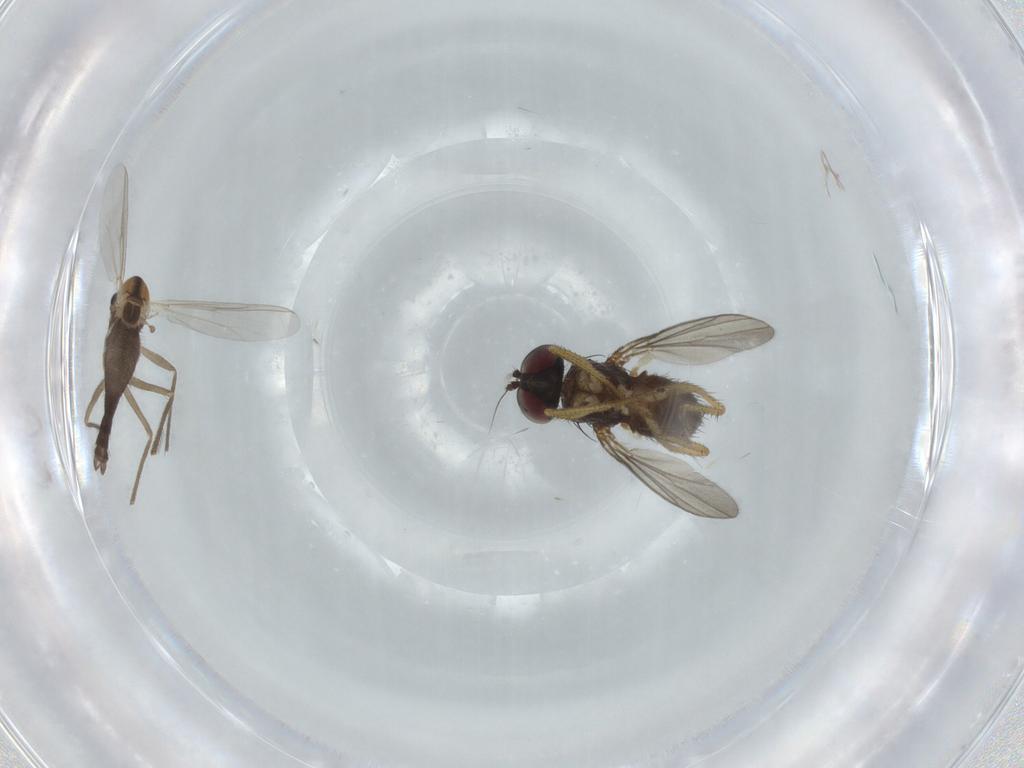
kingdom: Animalia
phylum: Arthropoda
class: Insecta
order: Diptera
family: Chironomidae
